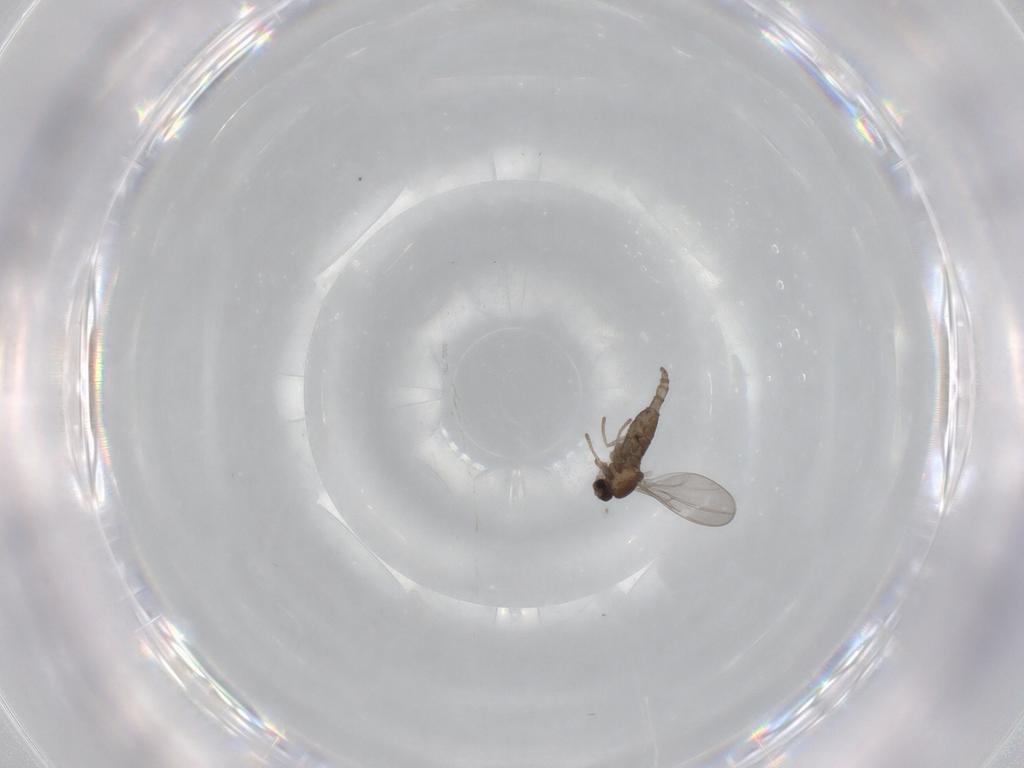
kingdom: Animalia
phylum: Arthropoda
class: Insecta
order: Diptera
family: Cecidomyiidae
